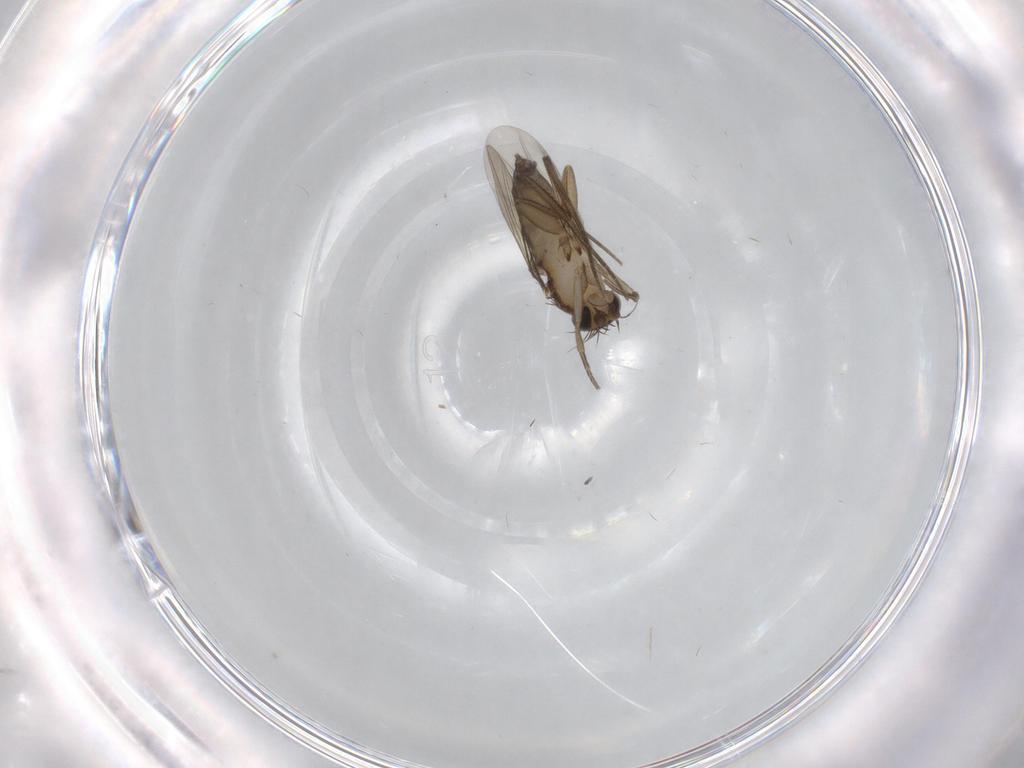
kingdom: Animalia
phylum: Arthropoda
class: Insecta
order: Diptera
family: Phoridae
